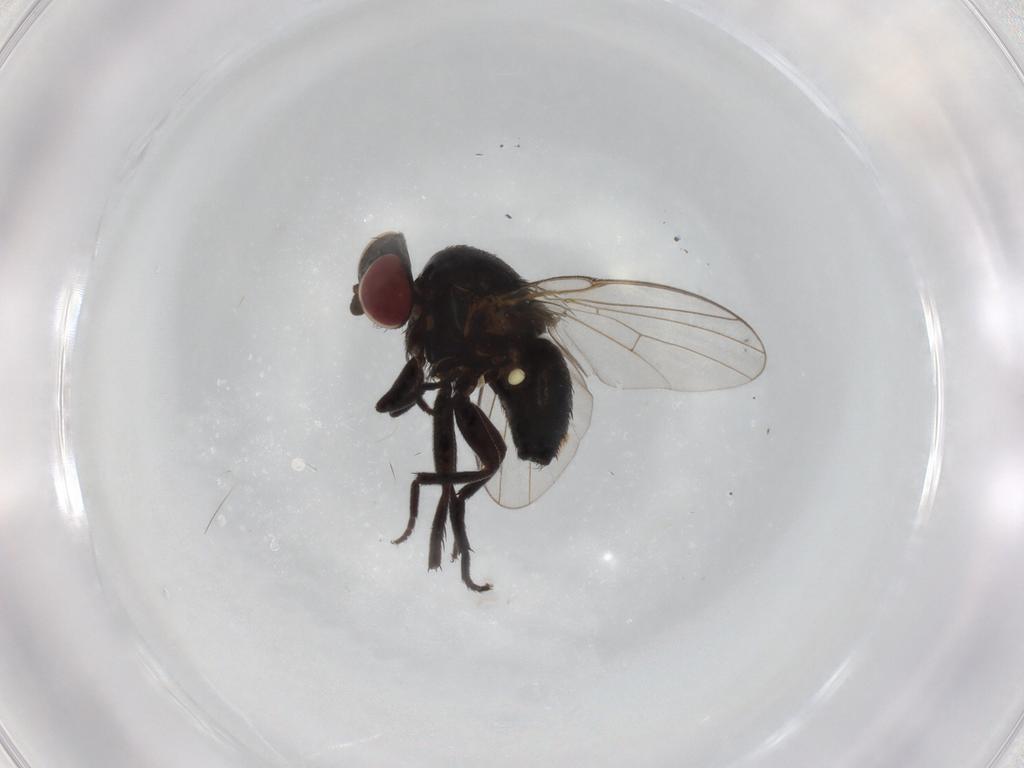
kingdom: Animalia
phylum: Arthropoda
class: Insecta
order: Diptera
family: Agromyzidae
